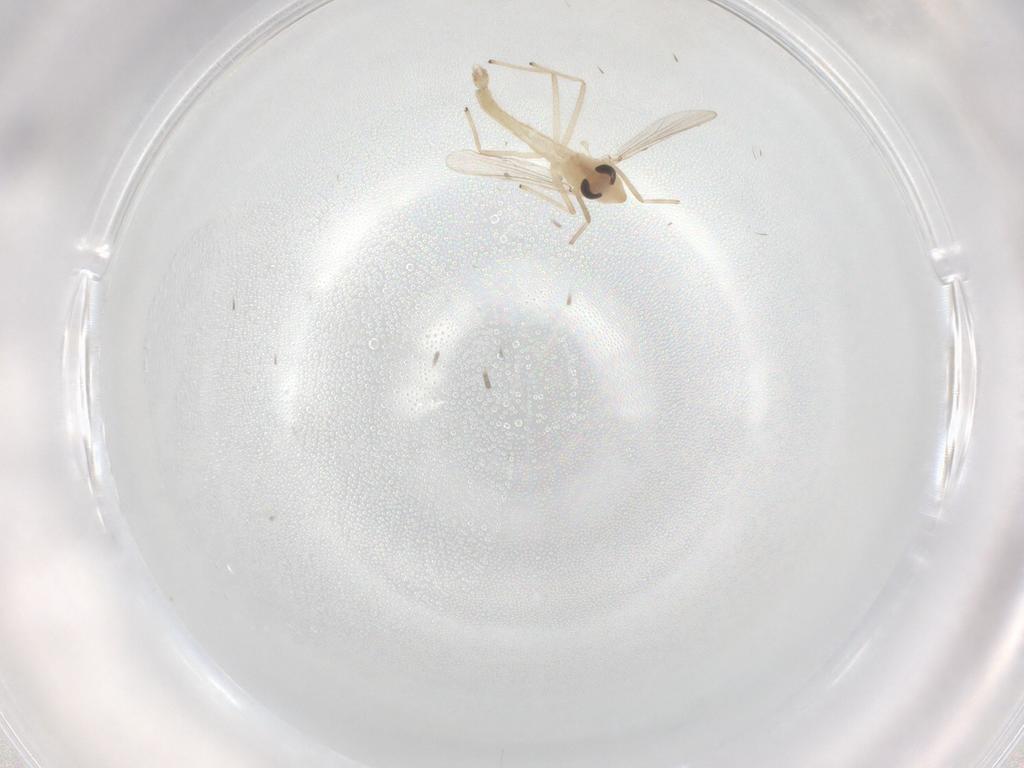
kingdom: Animalia
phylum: Arthropoda
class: Insecta
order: Diptera
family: Chironomidae
